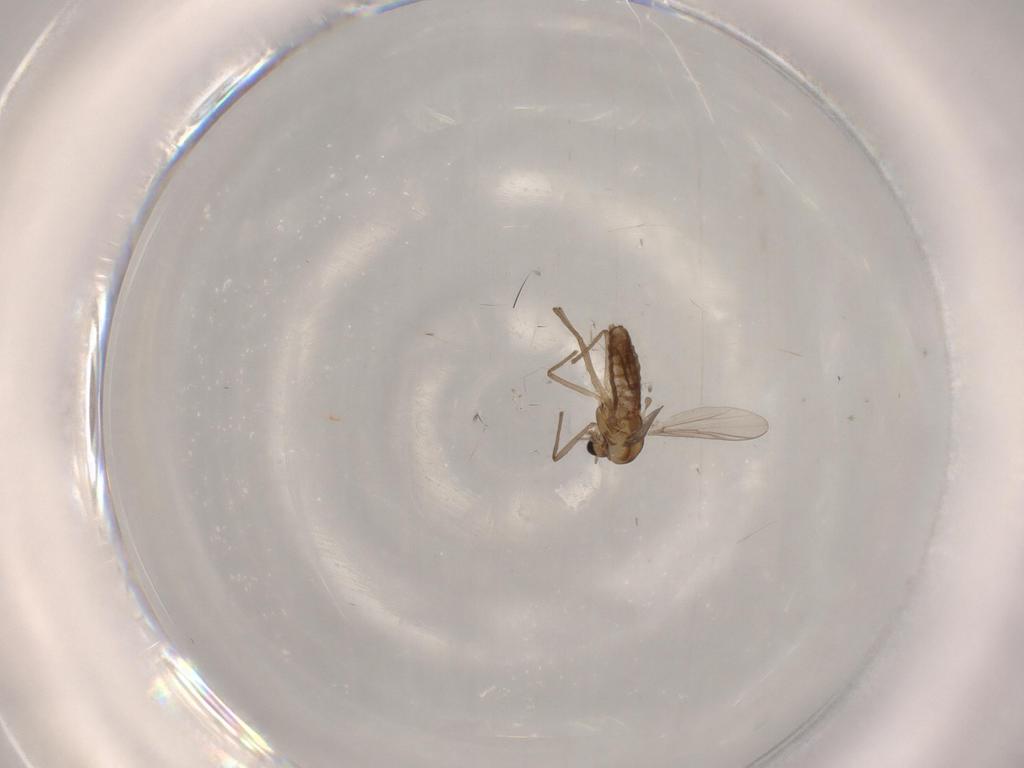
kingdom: Animalia
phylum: Arthropoda
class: Insecta
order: Diptera
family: Chironomidae
